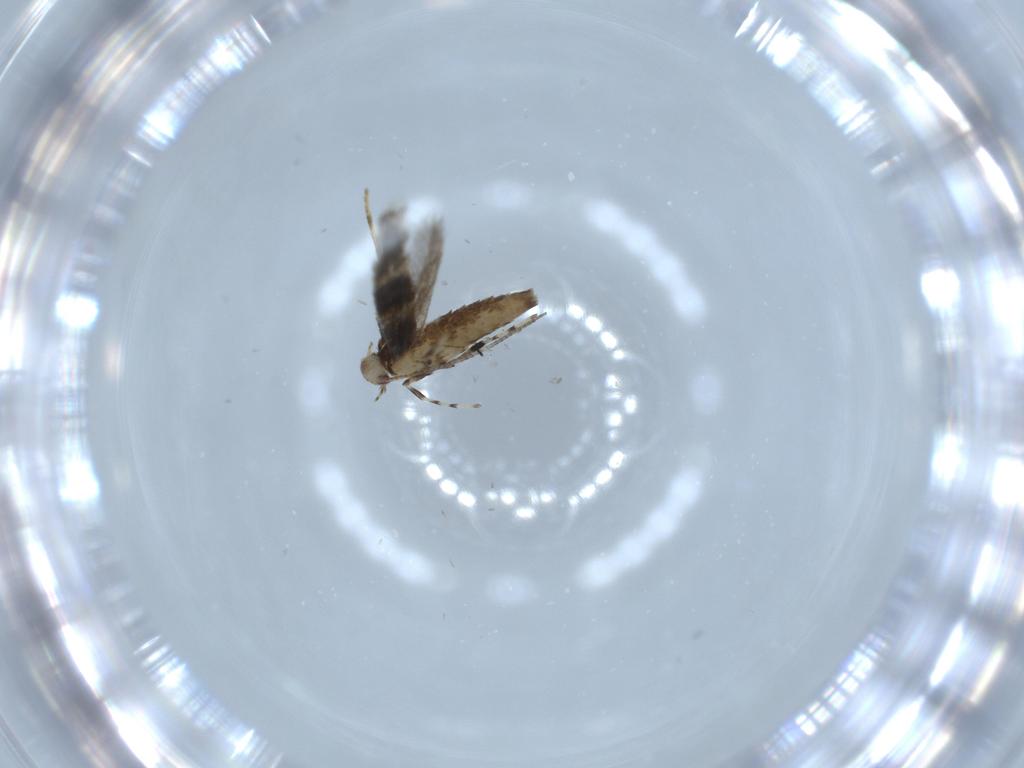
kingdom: Animalia
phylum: Arthropoda
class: Insecta
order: Lepidoptera
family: Gracillariidae
